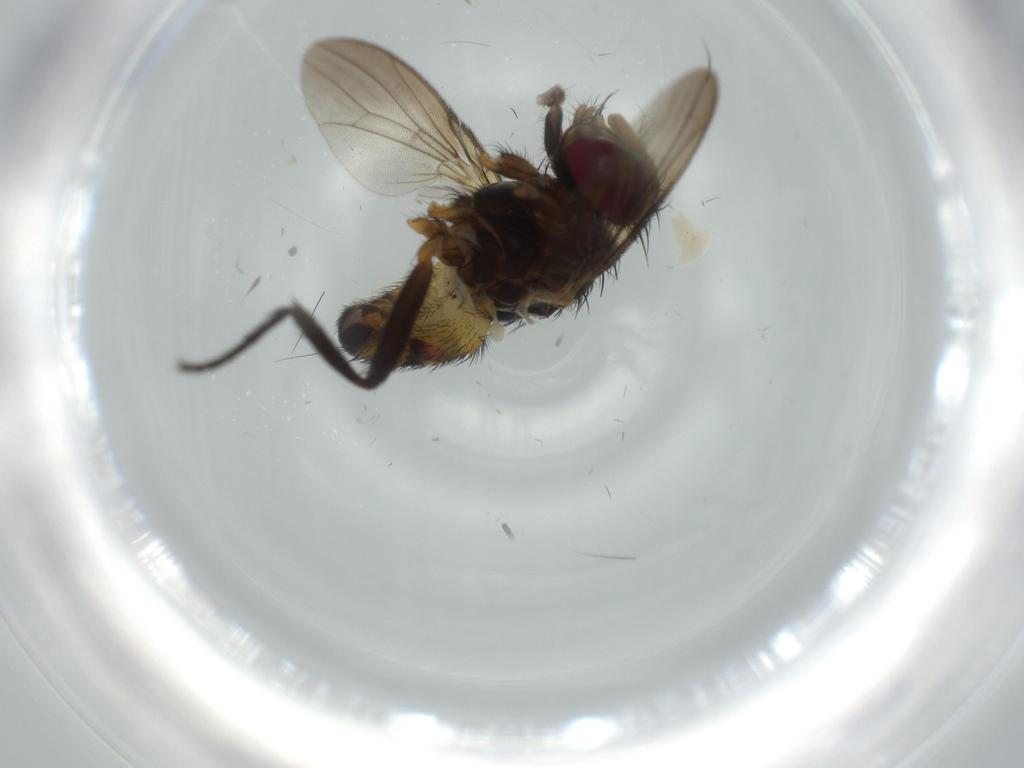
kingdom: Animalia
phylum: Arthropoda
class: Insecta
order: Diptera
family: Anthomyiidae
